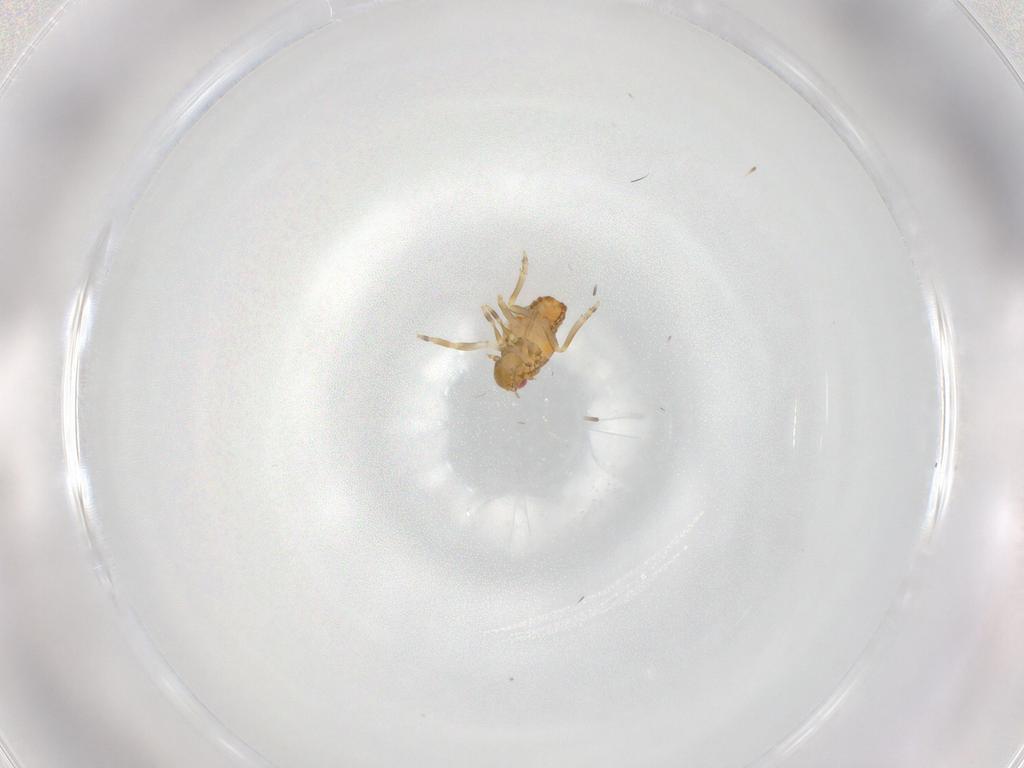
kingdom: Animalia
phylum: Arthropoda
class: Insecta
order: Hemiptera
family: Flatidae
